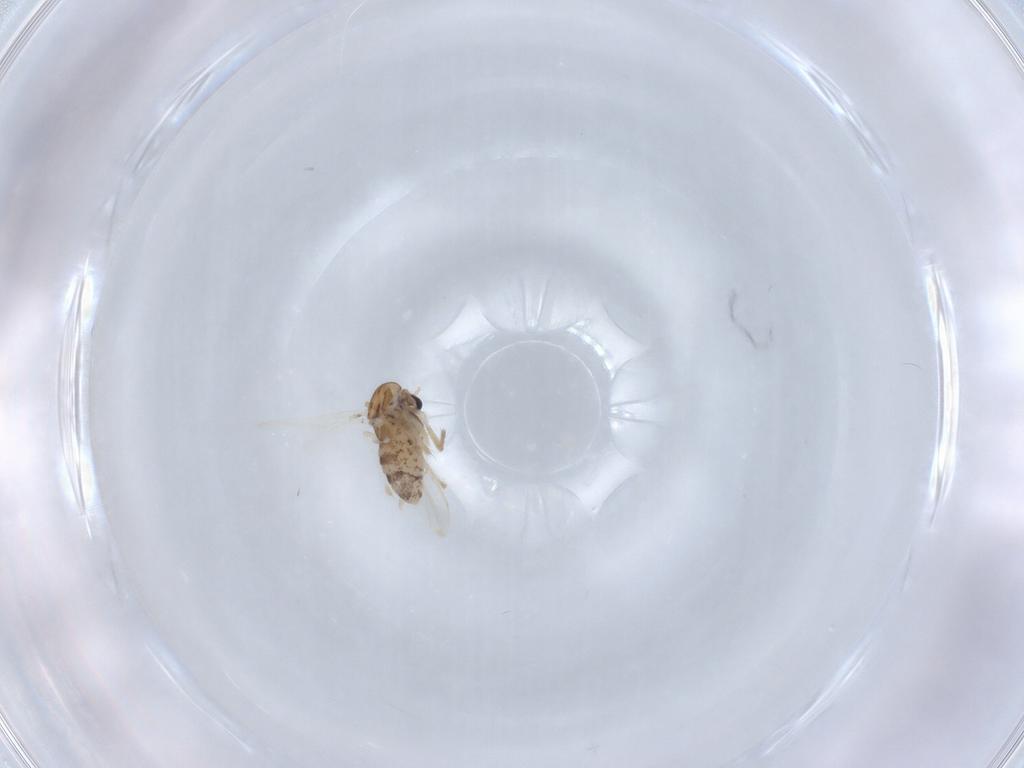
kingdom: Animalia
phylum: Arthropoda
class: Insecta
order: Diptera
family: Chironomidae
